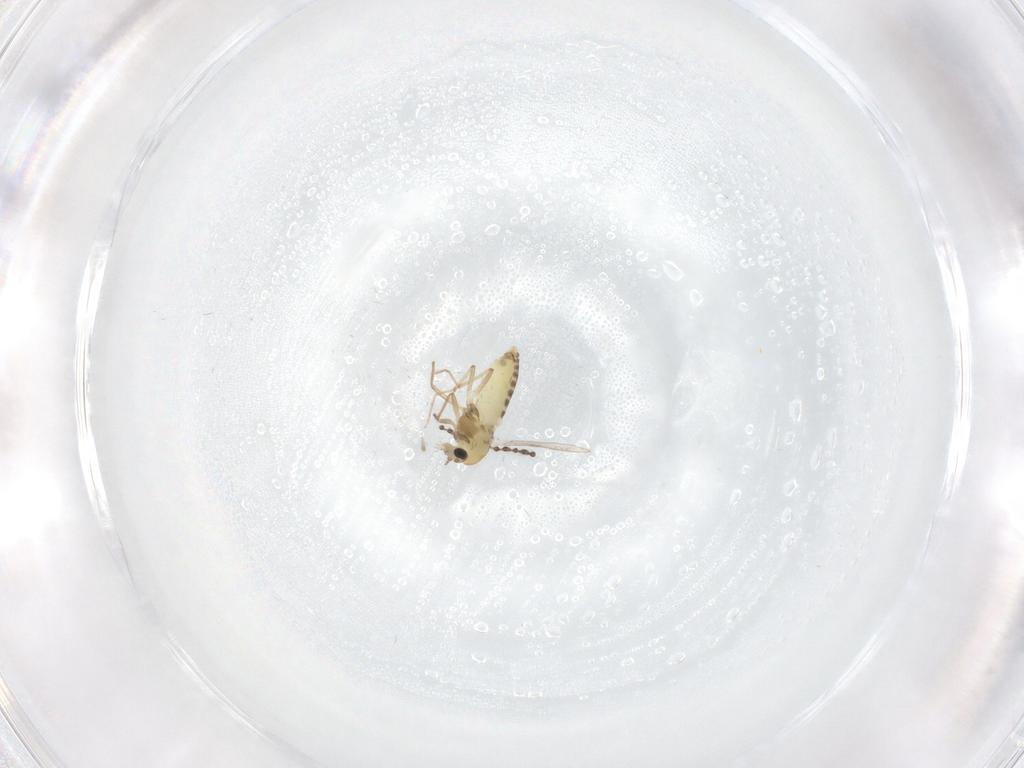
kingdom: Animalia
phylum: Arthropoda
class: Insecta
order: Diptera
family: Chironomidae
